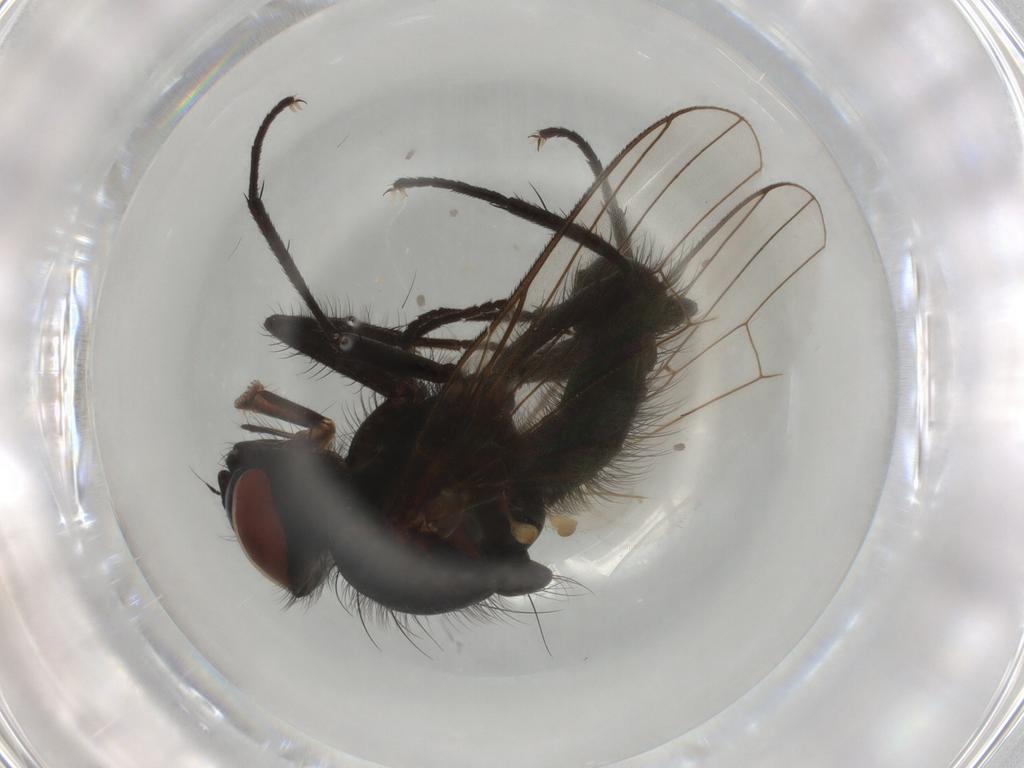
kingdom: Animalia
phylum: Arthropoda
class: Insecta
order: Diptera
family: Anthomyiidae
